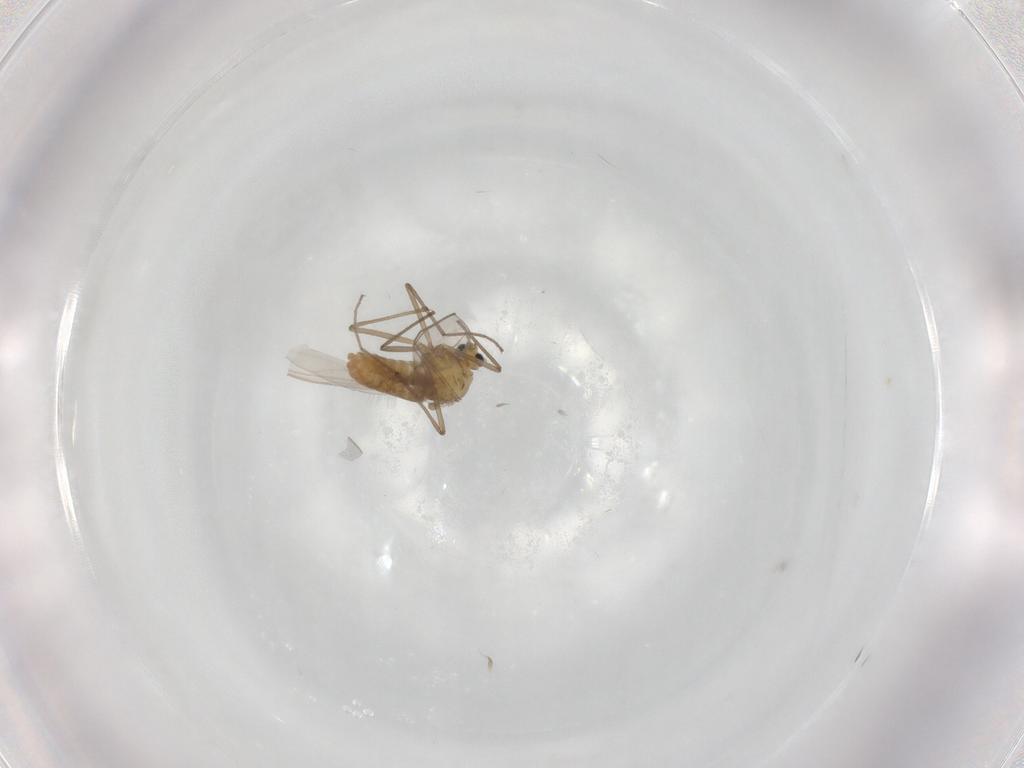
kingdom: Animalia
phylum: Arthropoda
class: Insecta
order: Diptera
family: Chironomidae
